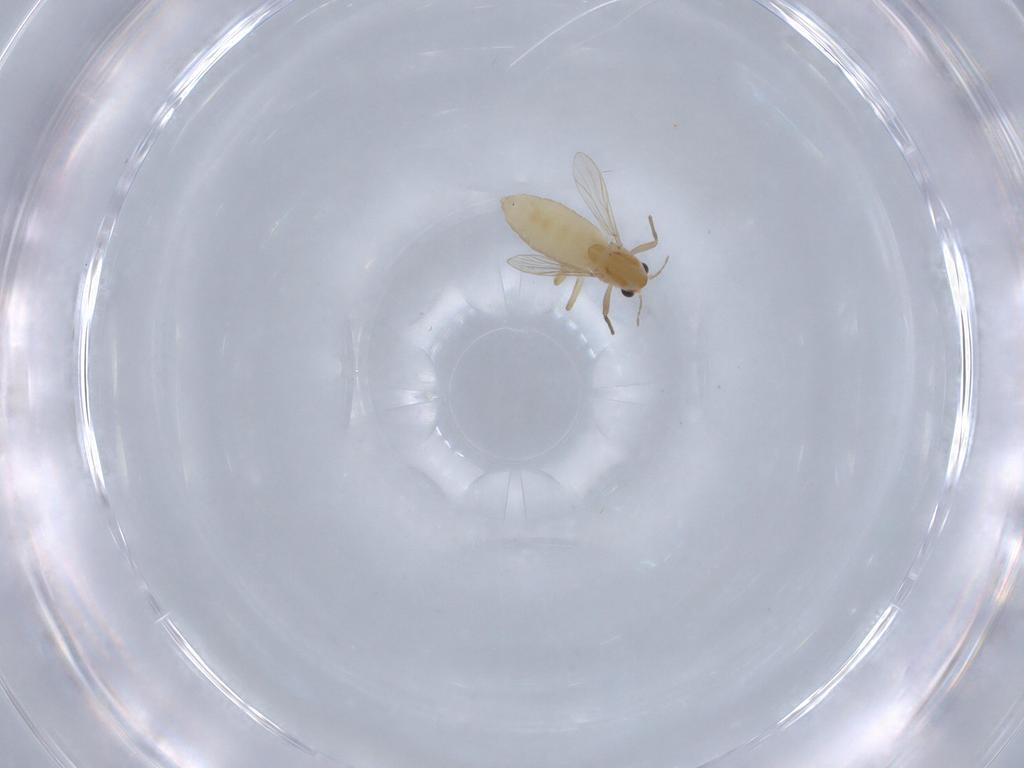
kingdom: Animalia
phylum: Arthropoda
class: Insecta
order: Diptera
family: Chironomidae
